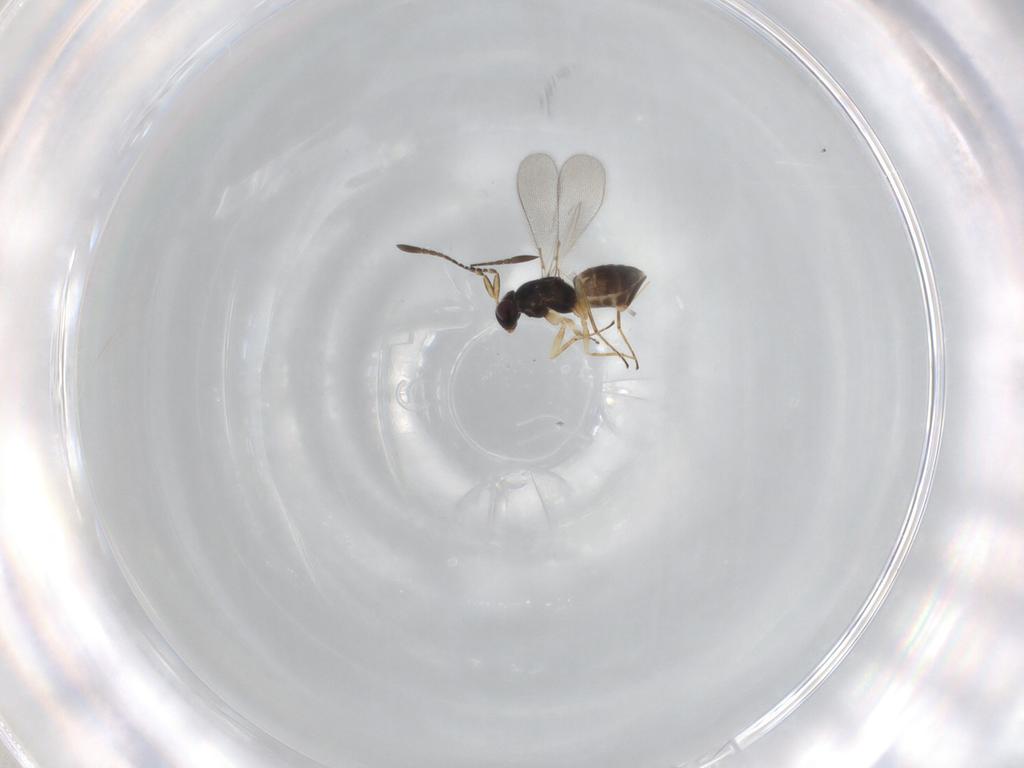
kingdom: Animalia
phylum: Arthropoda
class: Insecta
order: Hymenoptera
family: Mymaridae
